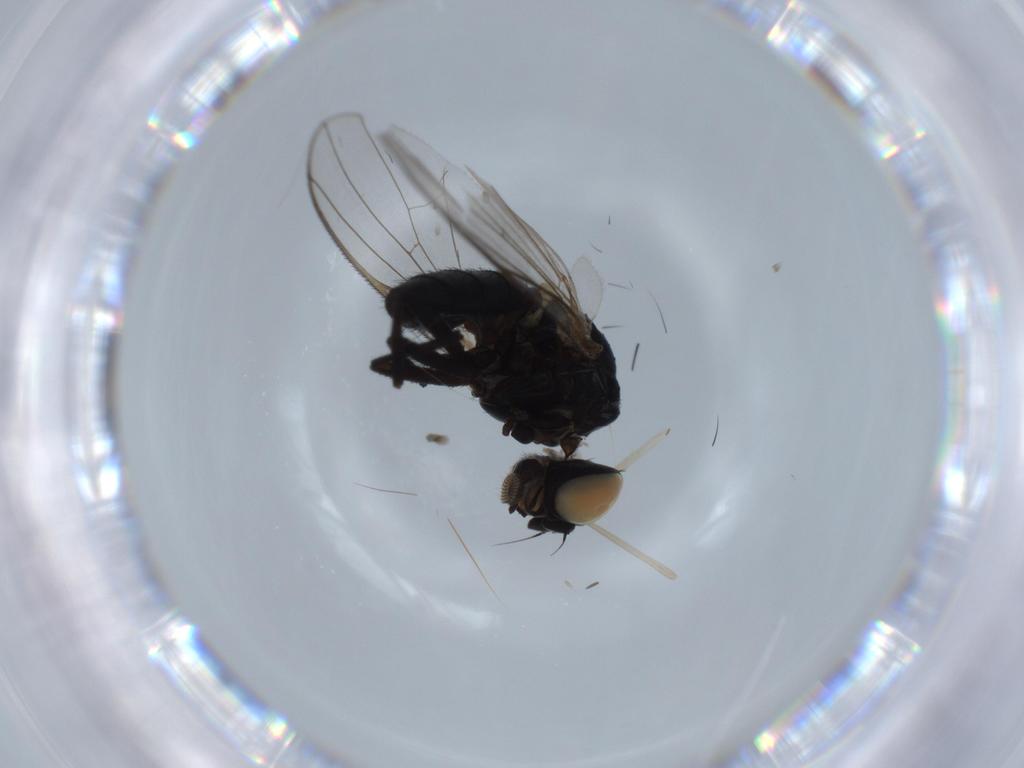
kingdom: Animalia
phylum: Arthropoda
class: Insecta
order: Diptera
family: Cecidomyiidae
